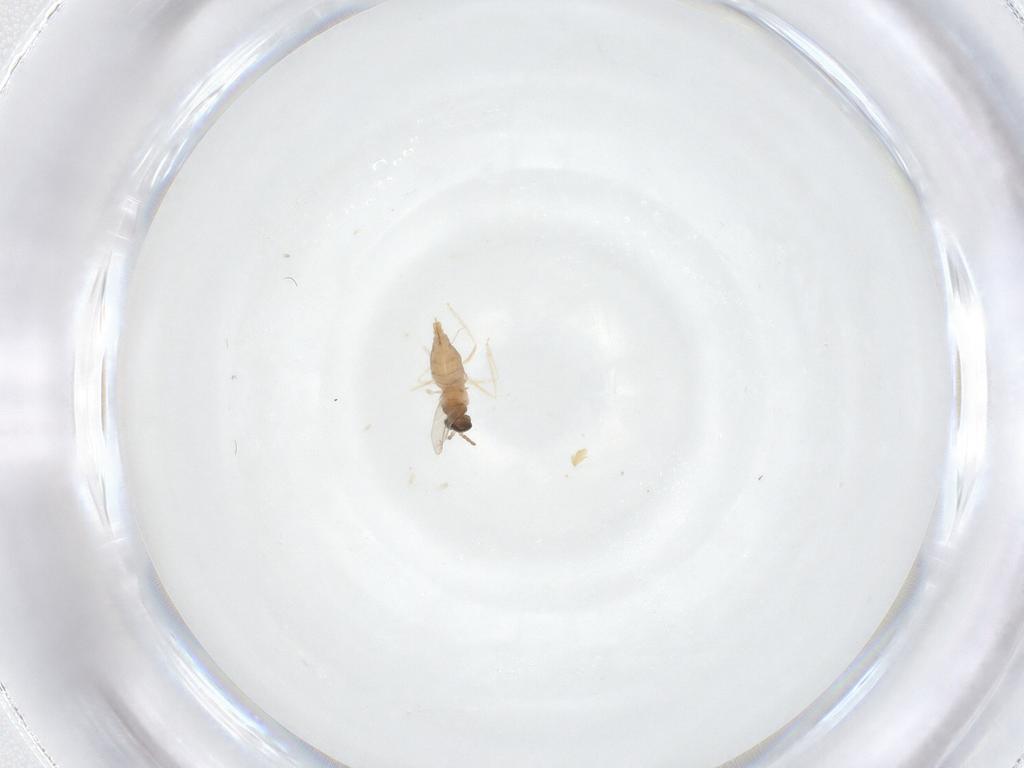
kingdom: Animalia
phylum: Arthropoda
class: Insecta
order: Diptera
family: Cecidomyiidae
